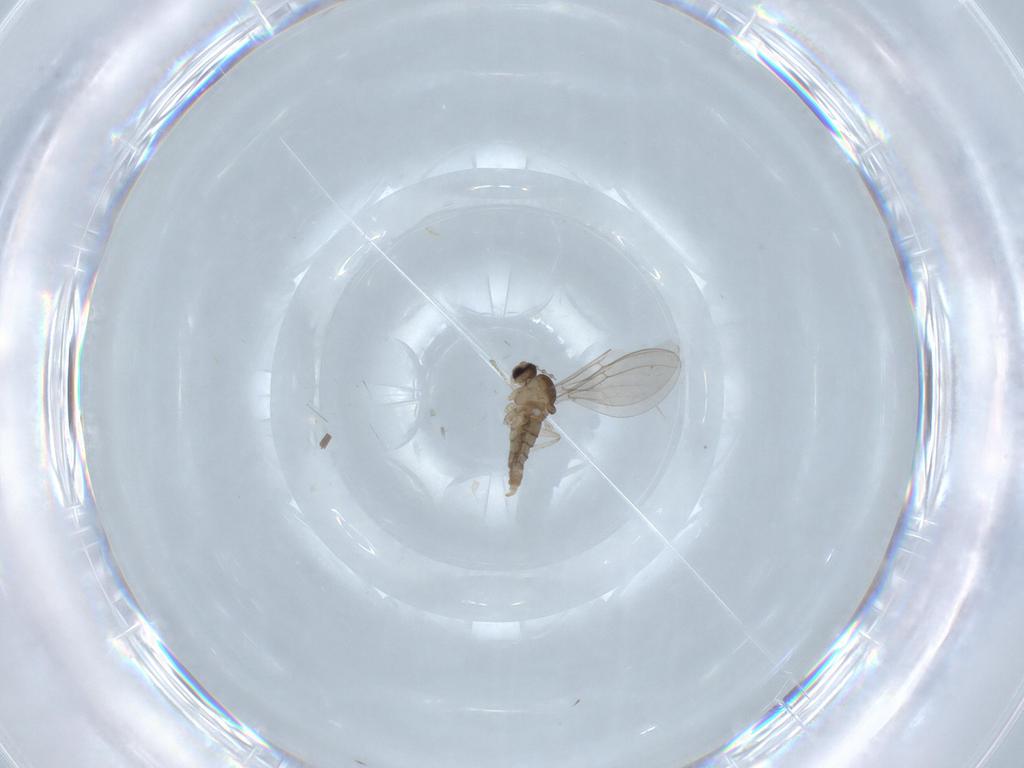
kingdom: Animalia
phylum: Arthropoda
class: Insecta
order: Diptera
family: Cecidomyiidae
